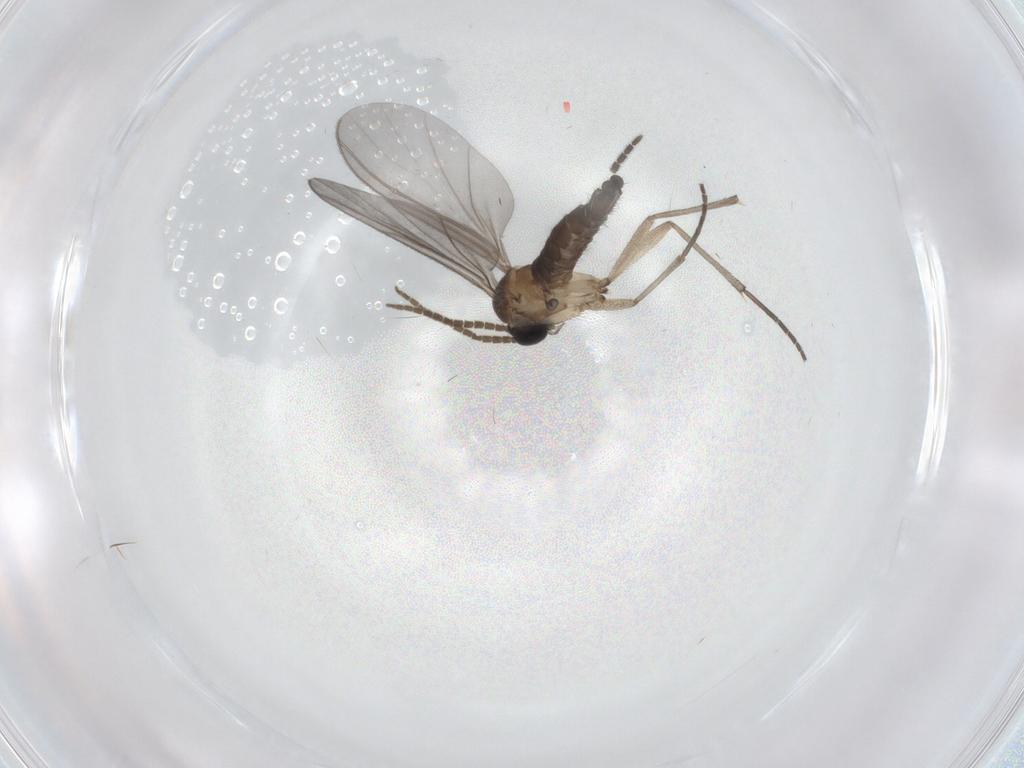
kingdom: Animalia
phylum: Arthropoda
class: Insecta
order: Diptera
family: Sciaridae
